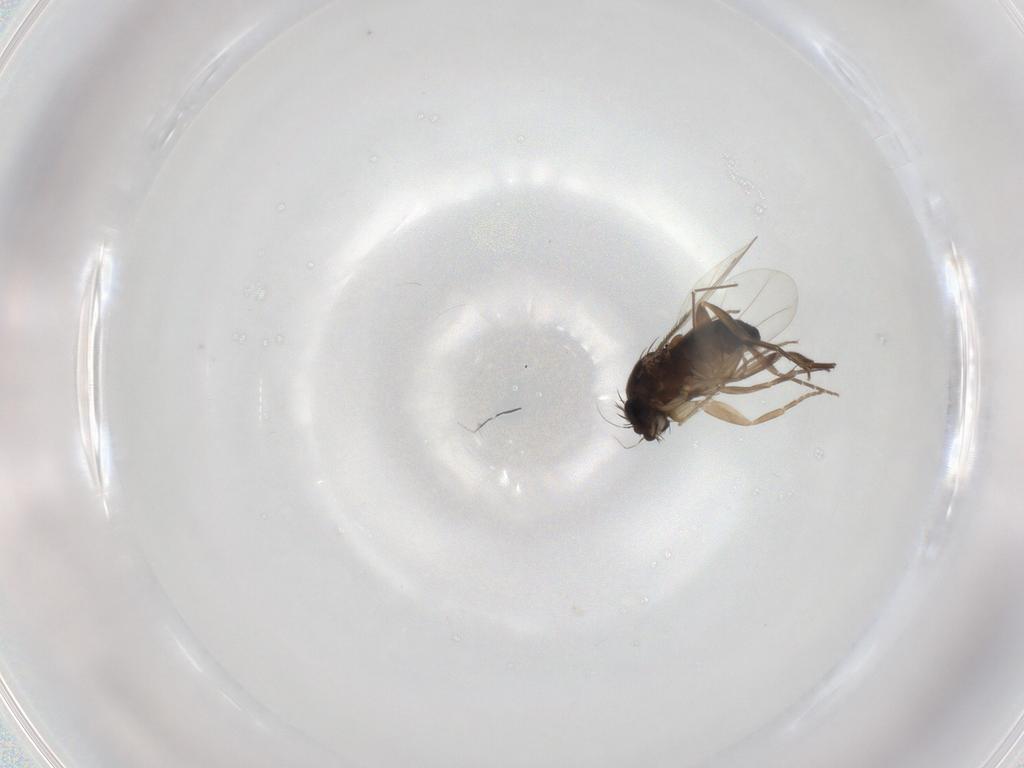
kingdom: Animalia
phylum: Arthropoda
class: Insecta
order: Diptera
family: Phoridae
